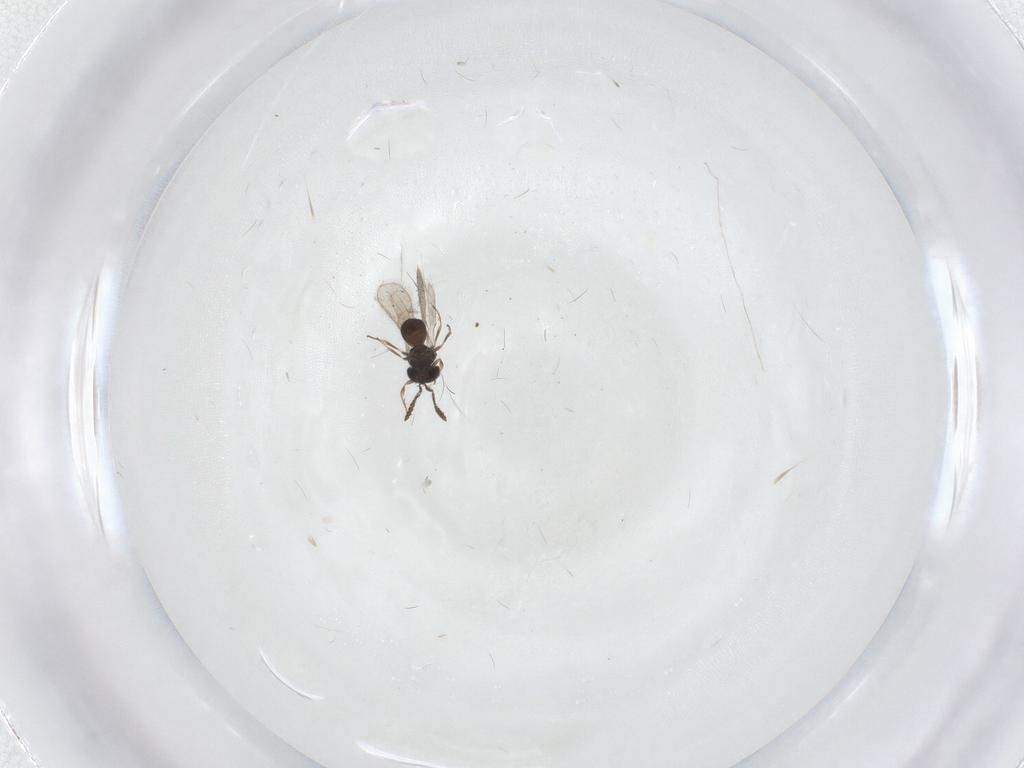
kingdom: Animalia
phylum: Arthropoda
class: Insecta
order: Hymenoptera
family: Scelionidae
